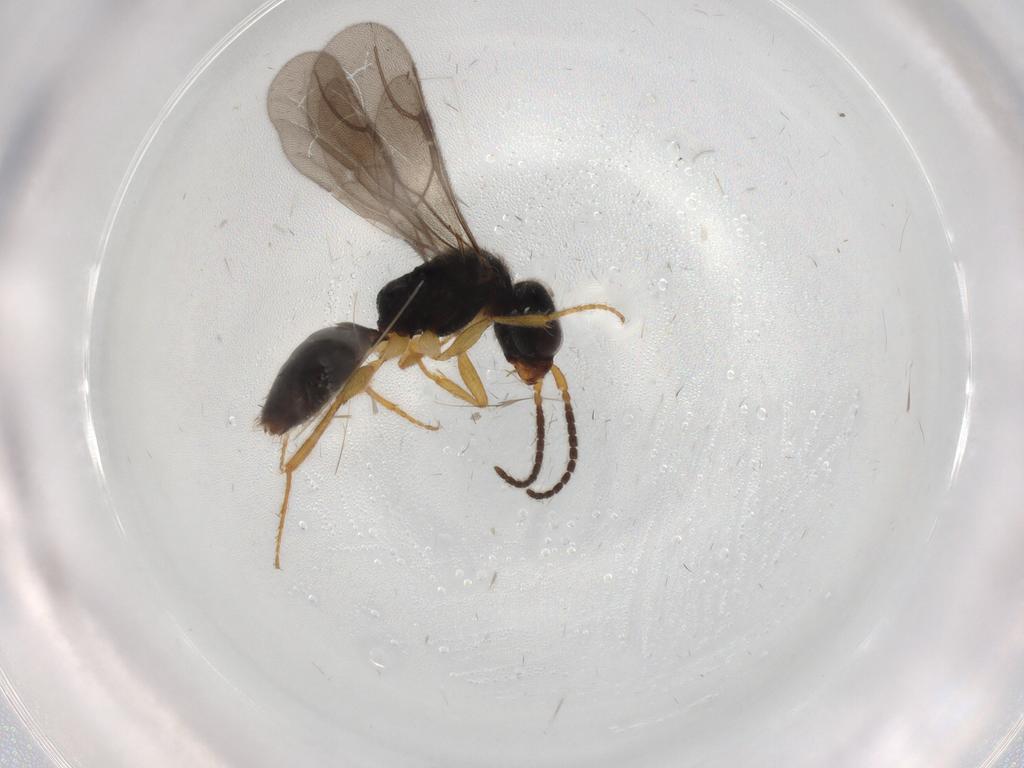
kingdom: Animalia
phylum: Arthropoda
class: Insecta
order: Hymenoptera
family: Bethylidae
